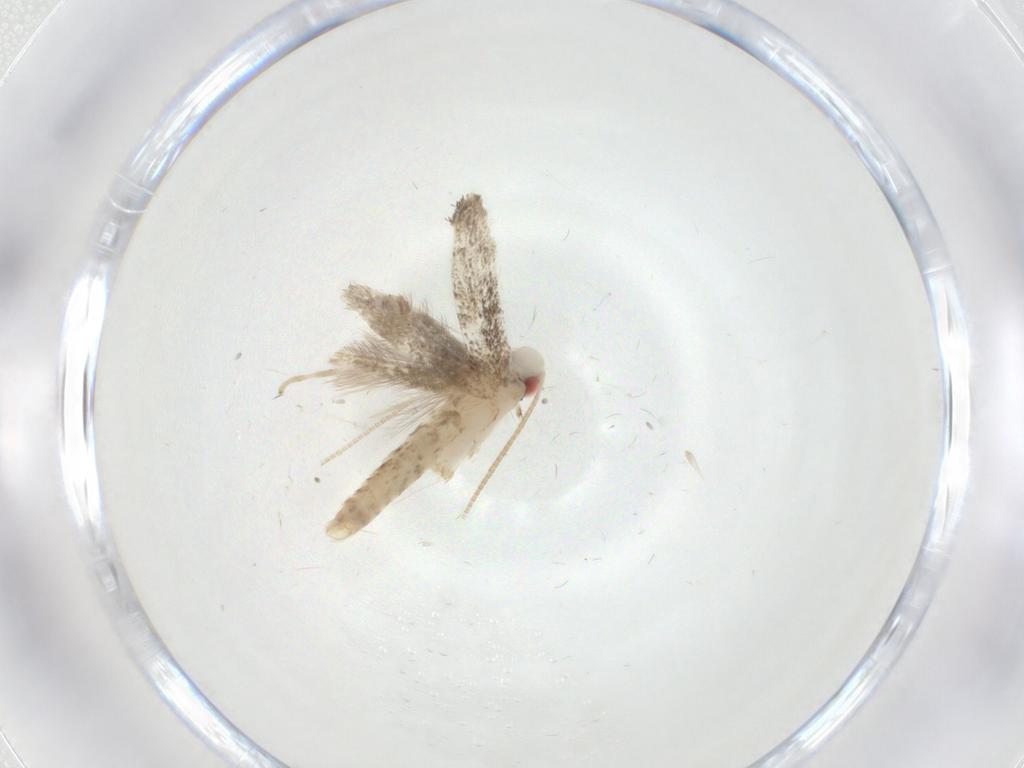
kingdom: Animalia
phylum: Arthropoda
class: Insecta
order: Lepidoptera
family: Gracillariidae
